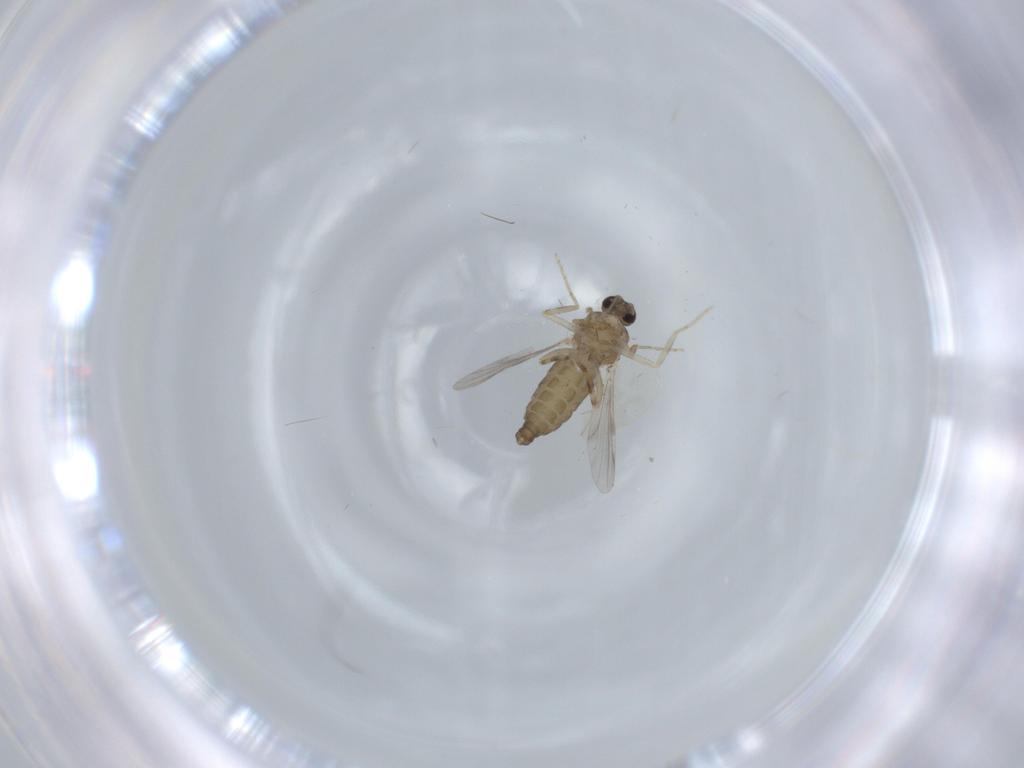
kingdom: Animalia
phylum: Arthropoda
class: Insecta
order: Diptera
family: Ceratopogonidae
